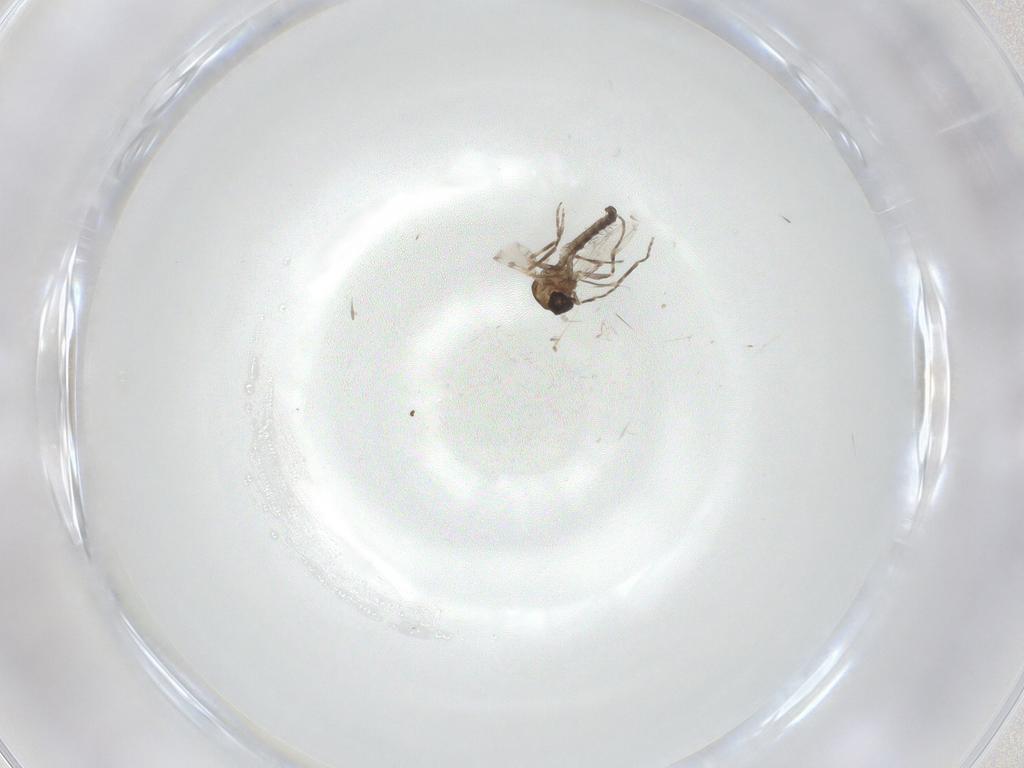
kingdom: Animalia
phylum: Arthropoda
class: Insecta
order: Diptera
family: Ceratopogonidae
